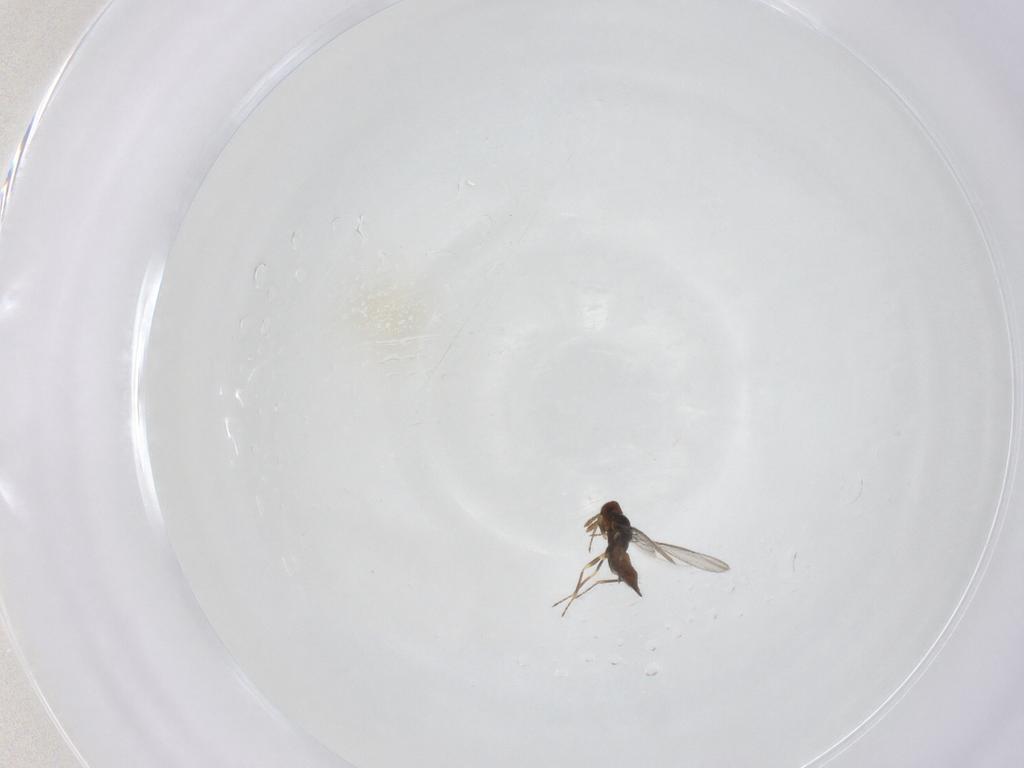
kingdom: Animalia
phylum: Arthropoda
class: Insecta
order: Hymenoptera
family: Eulophidae
